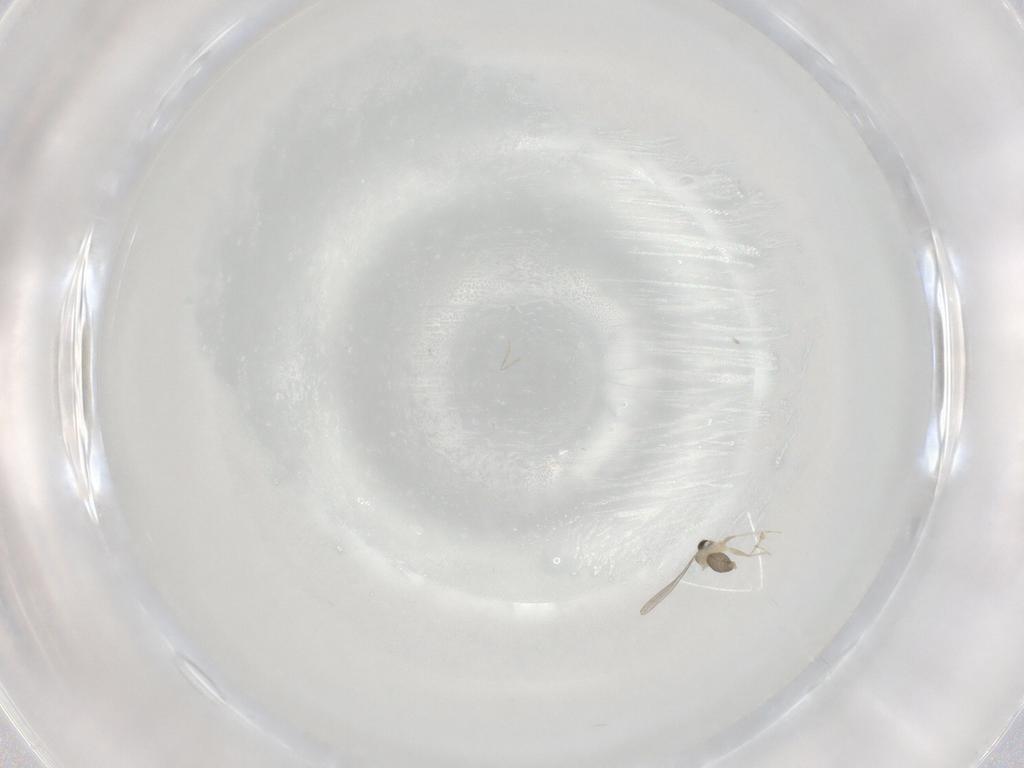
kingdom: Animalia
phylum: Arthropoda
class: Insecta
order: Diptera
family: Cecidomyiidae
